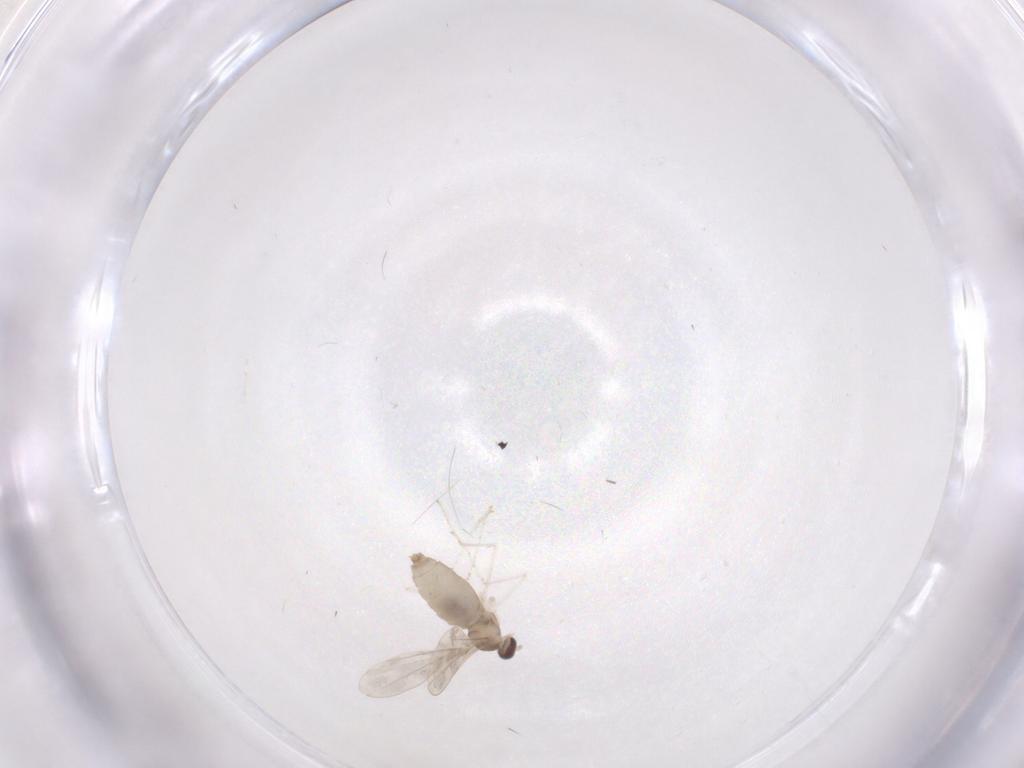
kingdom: Animalia
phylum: Arthropoda
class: Insecta
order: Diptera
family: Cecidomyiidae
